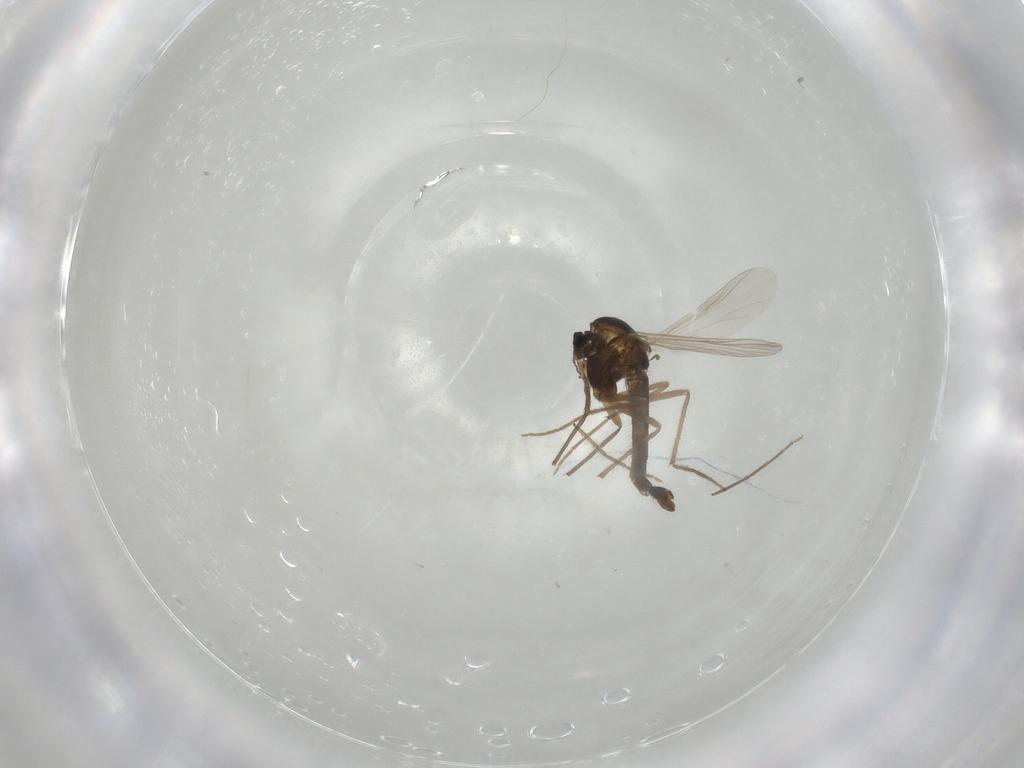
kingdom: Animalia
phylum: Arthropoda
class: Insecta
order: Diptera
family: Chironomidae
